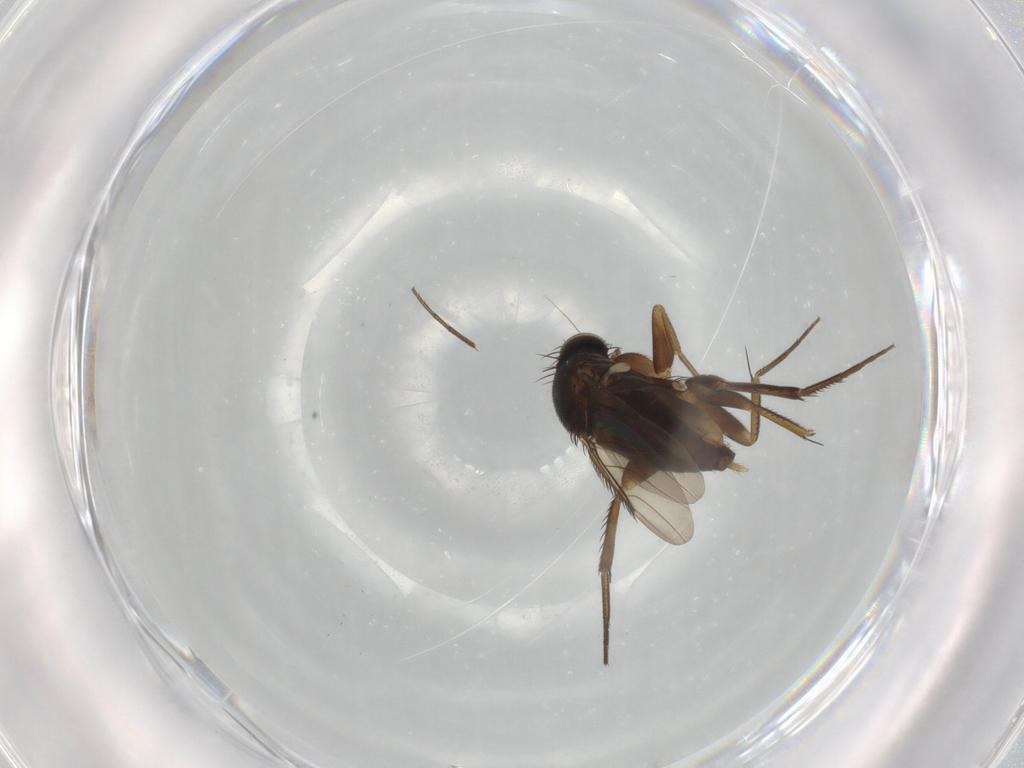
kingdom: Animalia
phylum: Arthropoda
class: Insecta
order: Diptera
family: Phoridae
